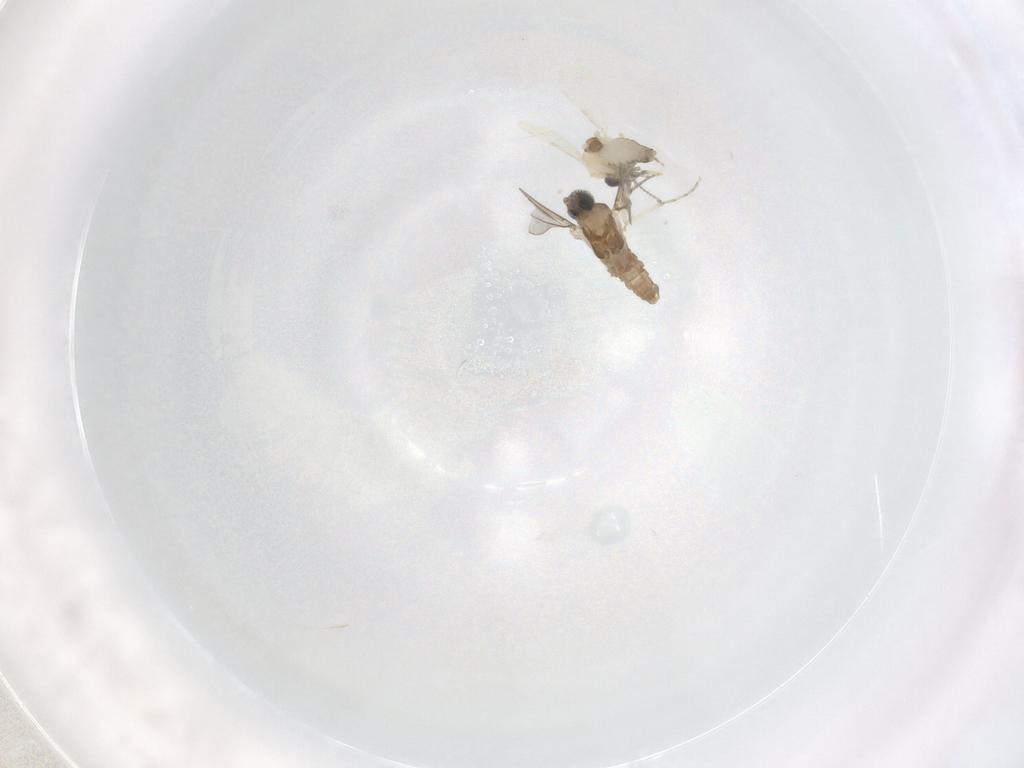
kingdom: Animalia
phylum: Arthropoda
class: Insecta
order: Diptera
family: Ceratopogonidae
